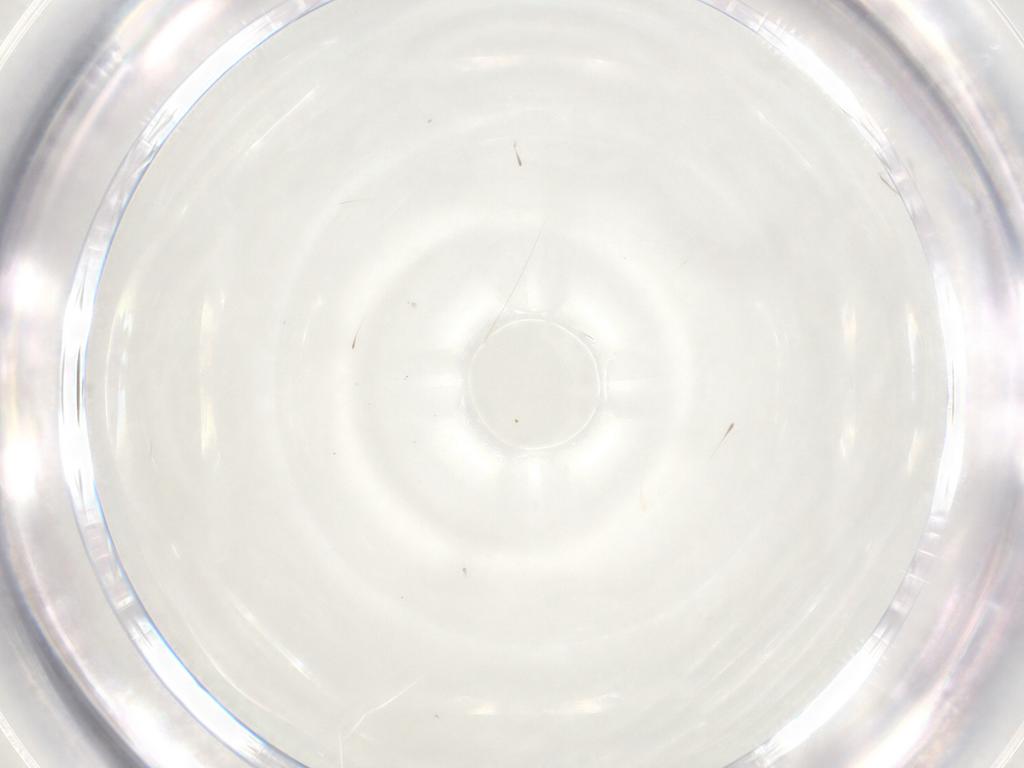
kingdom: Animalia
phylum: Arthropoda
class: Insecta
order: Diptera
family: Cecidomyiidae
